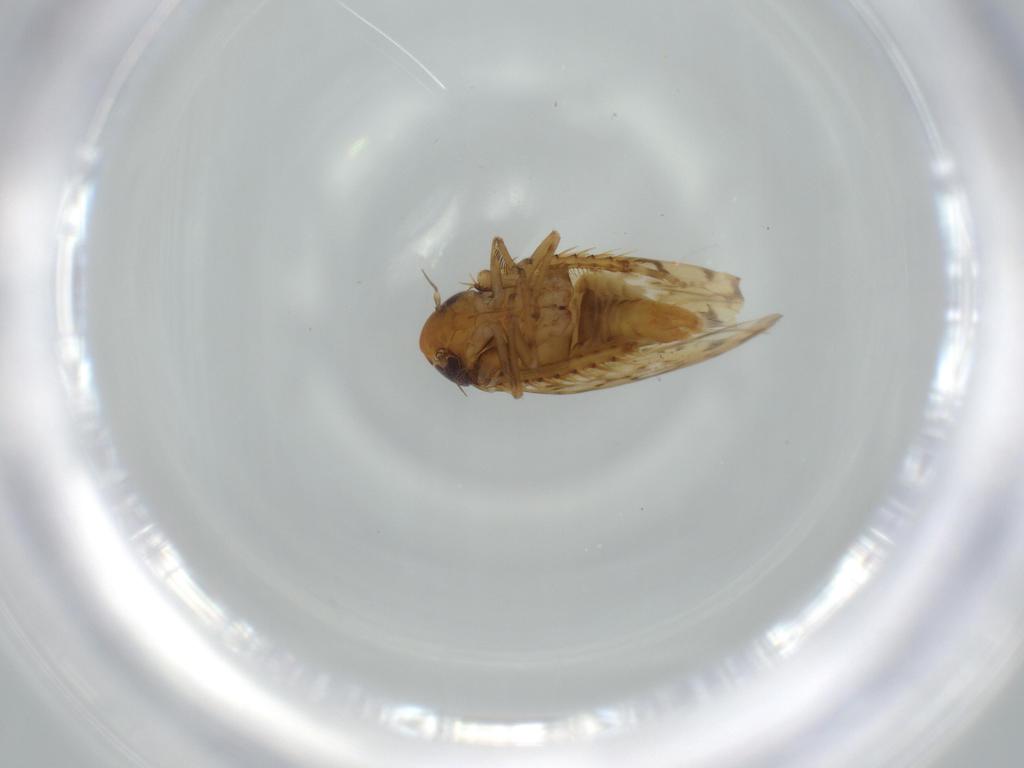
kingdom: Animalia
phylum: Arthropoda
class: Insecta
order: Hemiptera
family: Cicadellidae
